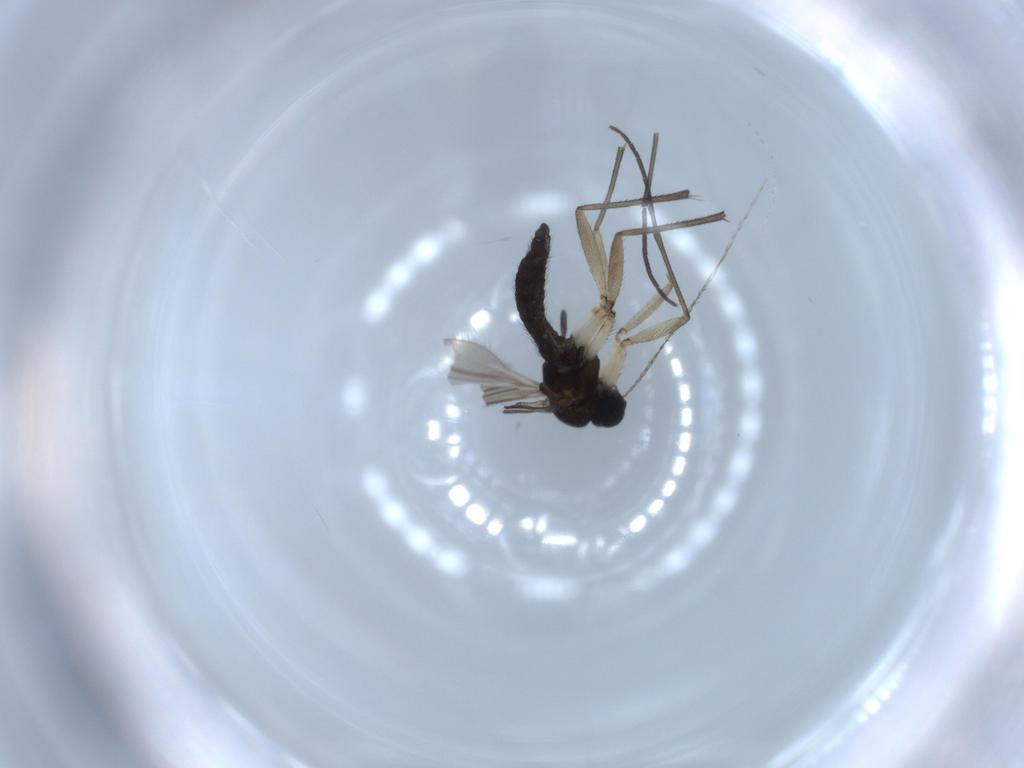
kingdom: Animalia
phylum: Arthropoda
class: Insecta
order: Diptera
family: Sciaridae
